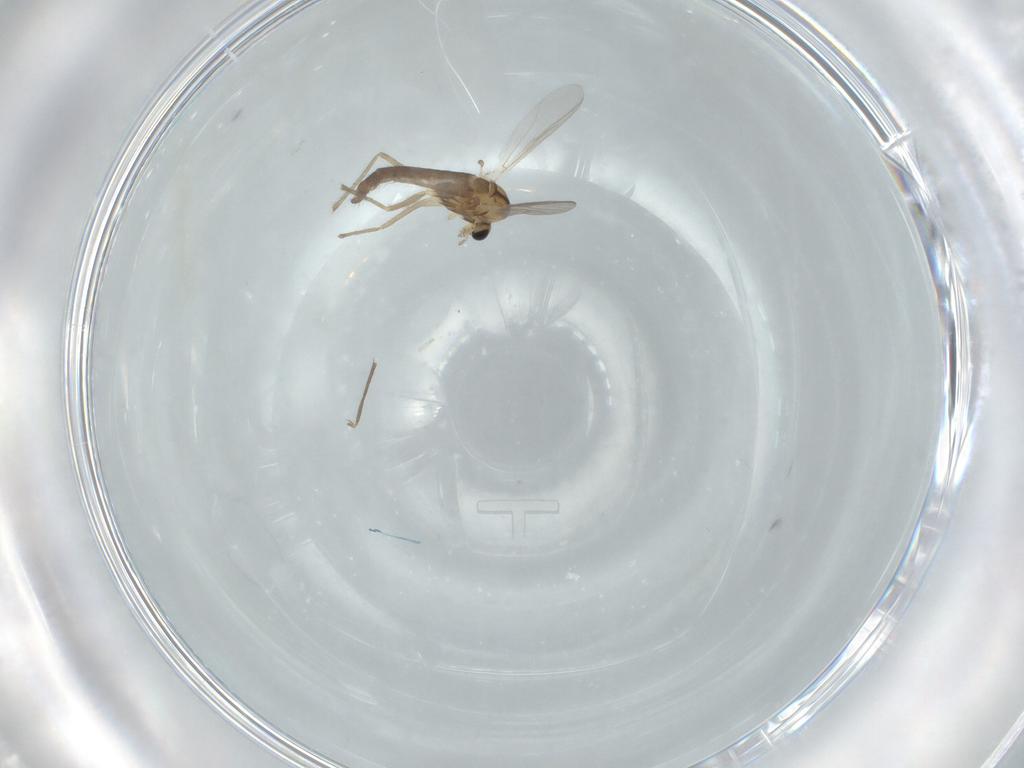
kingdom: Animalia
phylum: Arthropoda
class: Insecta
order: Diptera
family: Chironomidae
